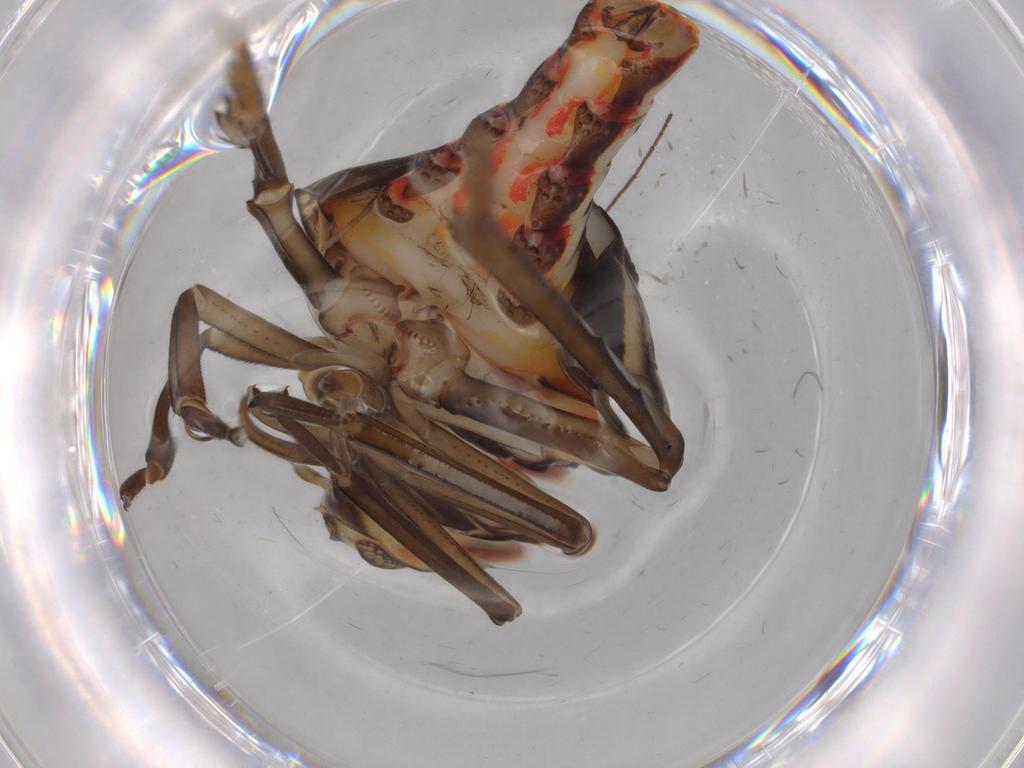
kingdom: Animalia
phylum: Arthropoda
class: Insecta
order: Hemiptera
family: Nogodinidae
